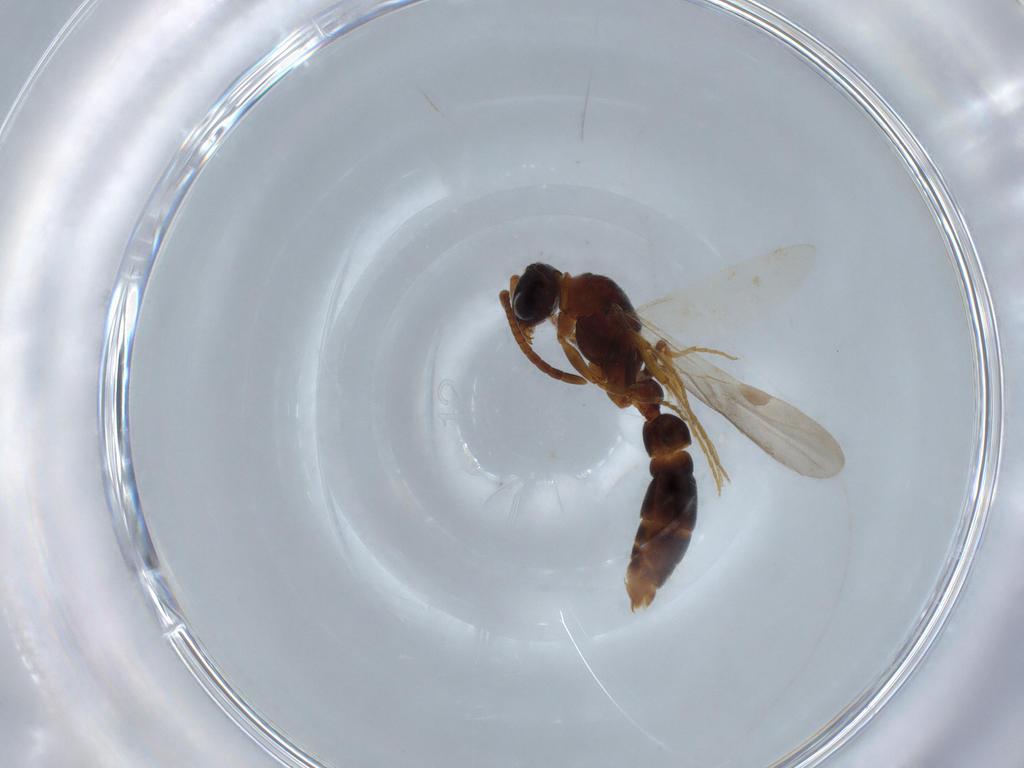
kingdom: Animalia
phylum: Arthropoda
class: Insecta
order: Hymenoptera
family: Formicidae
